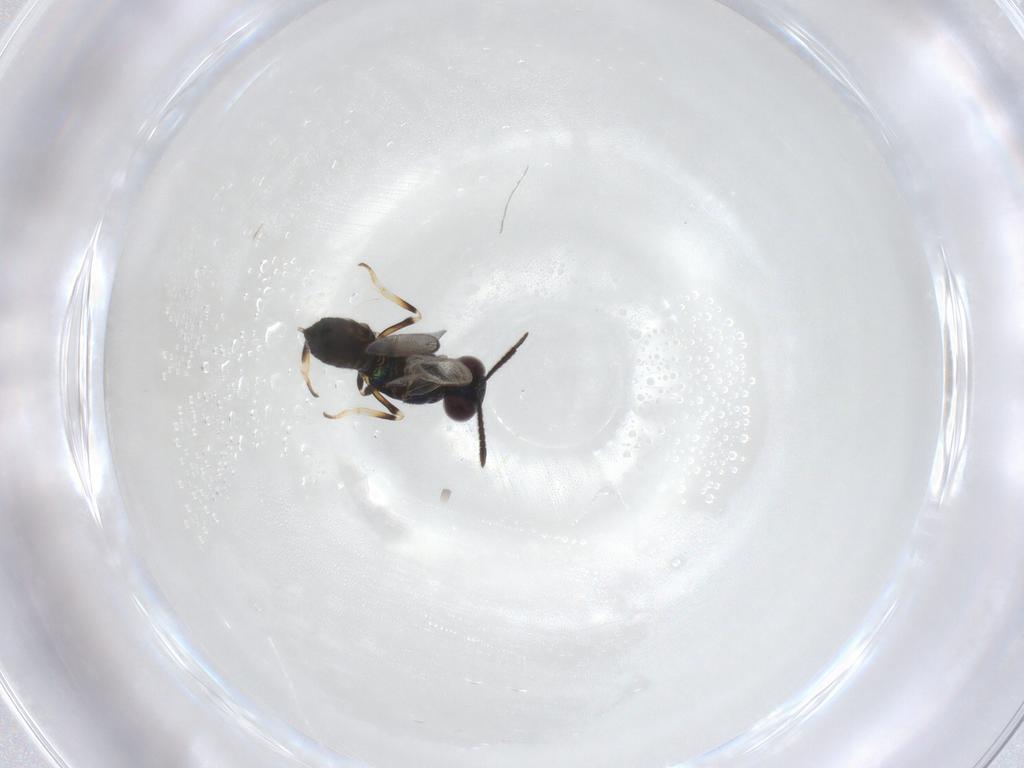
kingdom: Animalia
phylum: Arthropoda
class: Insecta
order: Hymenoptera
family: Eupelmidae
